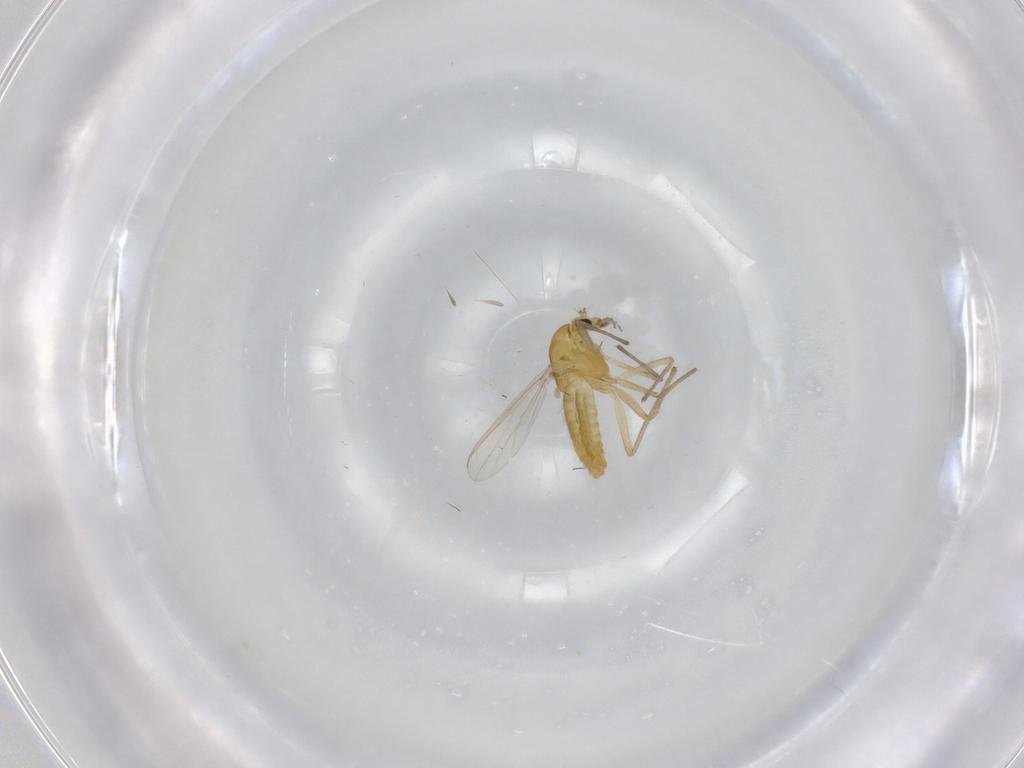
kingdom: Animalia
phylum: Arthropoda
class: Insecta
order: Diptera
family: Chironomidae
